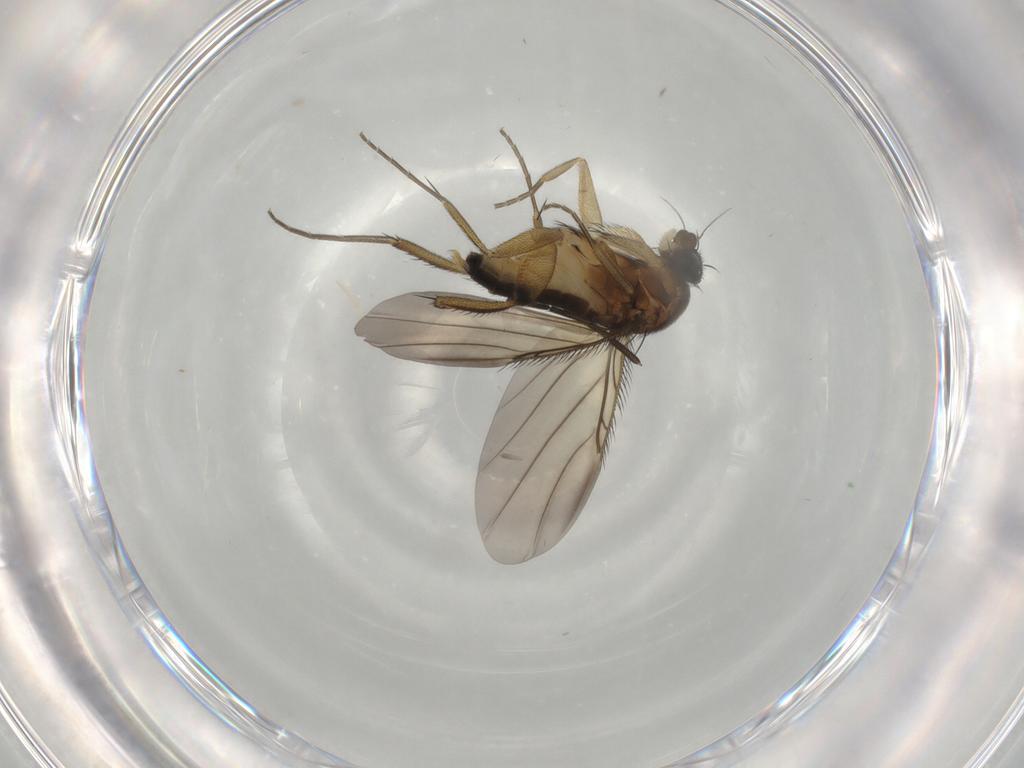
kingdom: Animalia
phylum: Arthropoda
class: Insecta
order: Diptera
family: Phoridae
